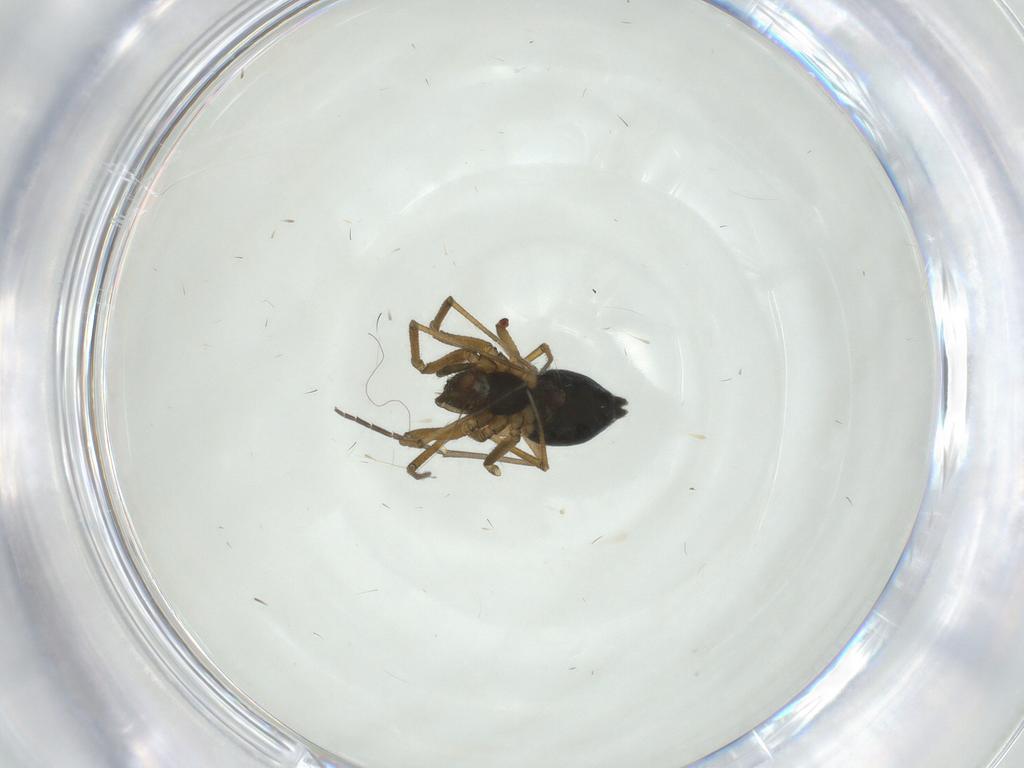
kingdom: Animalia
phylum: Arthropoda
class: Arachnida
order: Araneae
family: Linyphiidae
